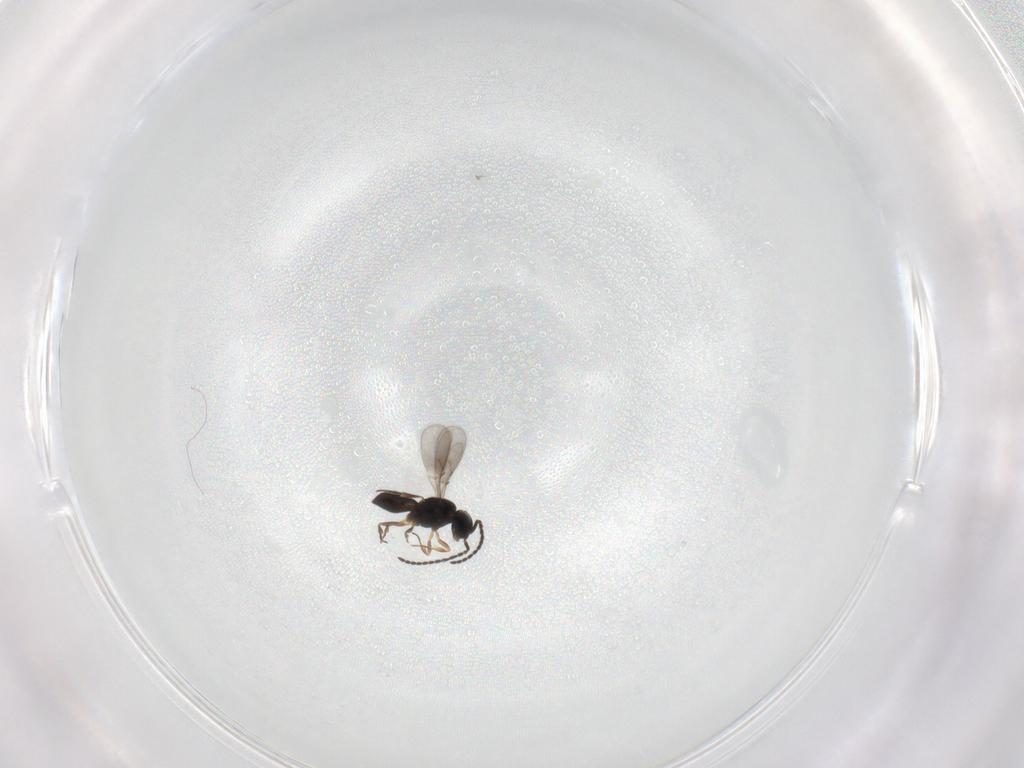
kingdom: Animalia
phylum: Arthropoda
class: Insecta
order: Hymenoptera
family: Scelionidae
